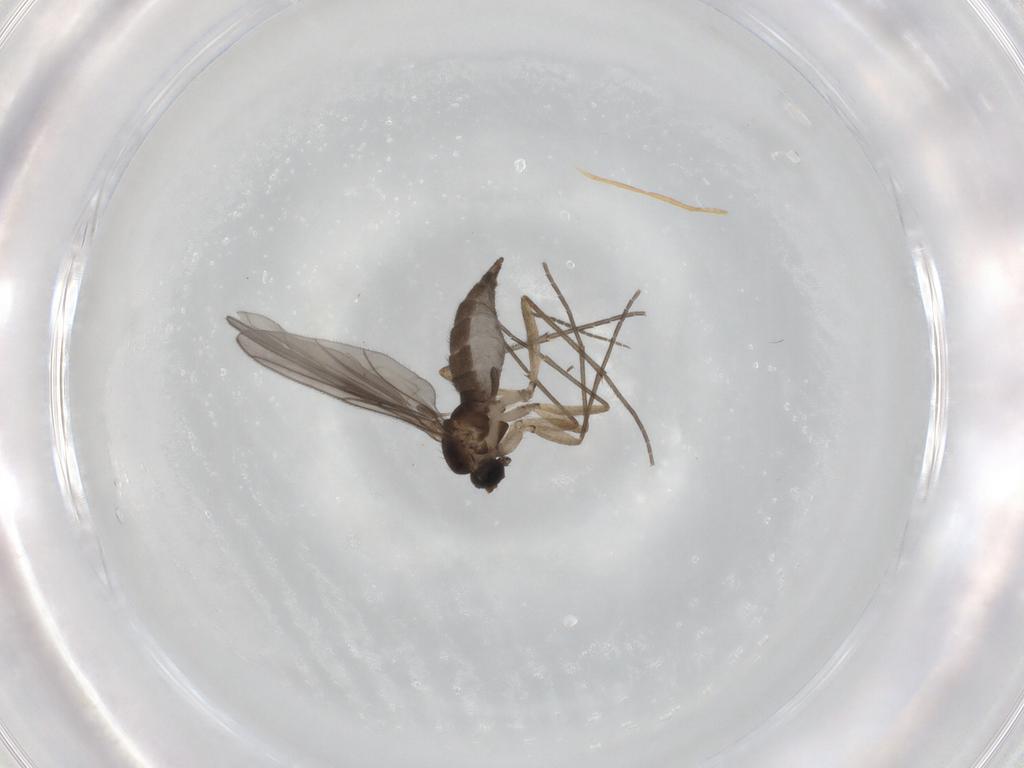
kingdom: Animalia
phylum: Arthropoda
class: Insecta
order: Diptera
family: Sciaridae
